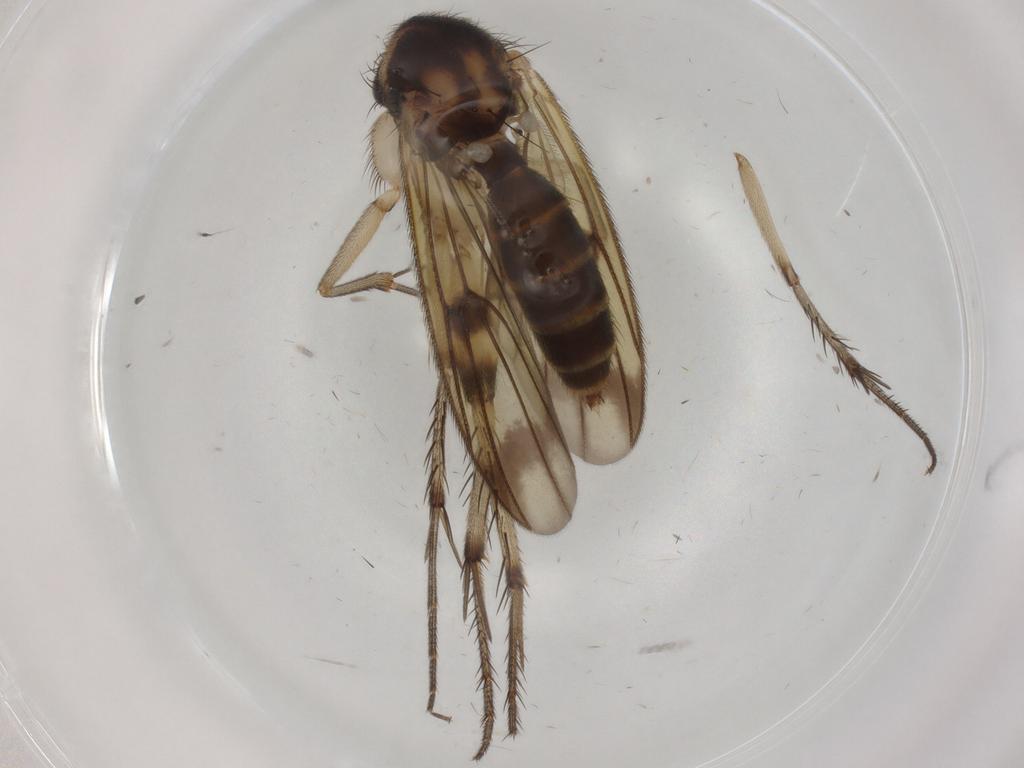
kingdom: Animalia
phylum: Arthropoda
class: Insecta
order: Diptera
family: Mycetophilidae
